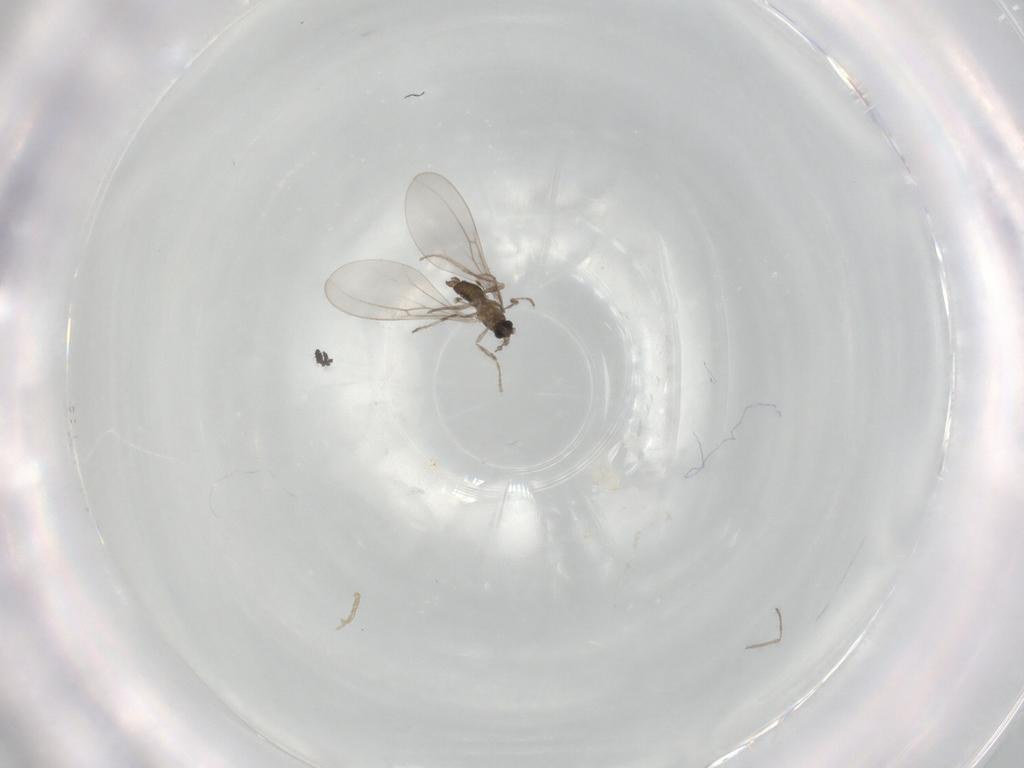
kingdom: Animalia
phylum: Arthropoda
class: Insecta
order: Diptera
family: Cecidomyiidae
